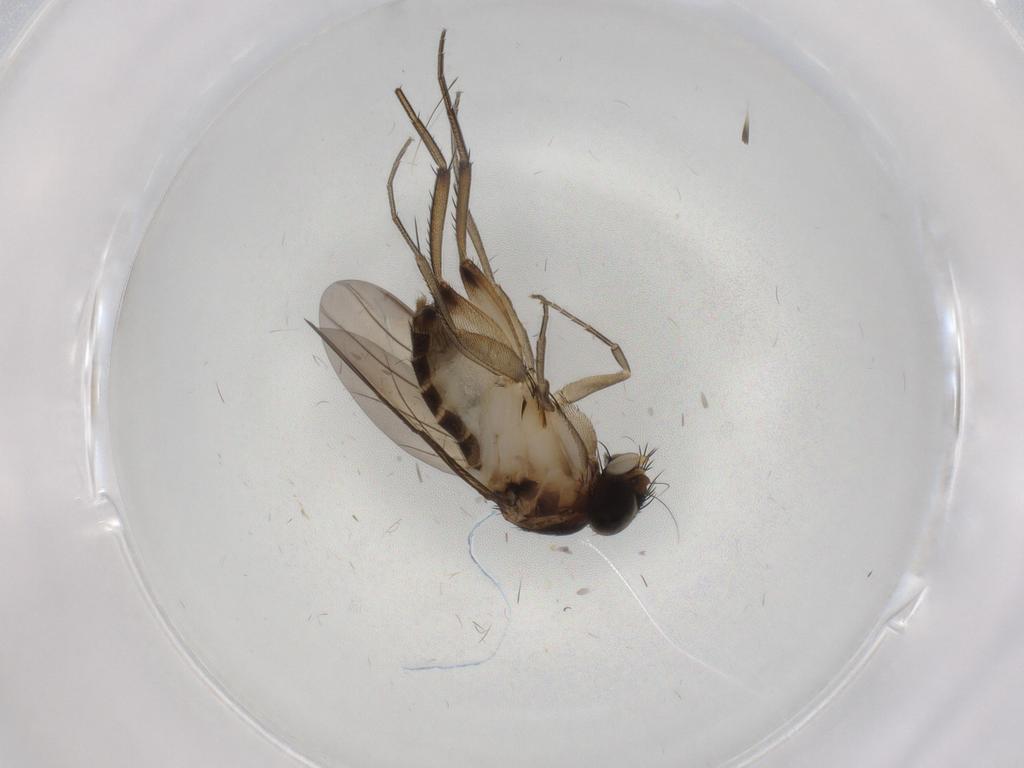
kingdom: Animalia
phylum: Arthropoda
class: Insecta
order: Diptera
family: Phoridae
